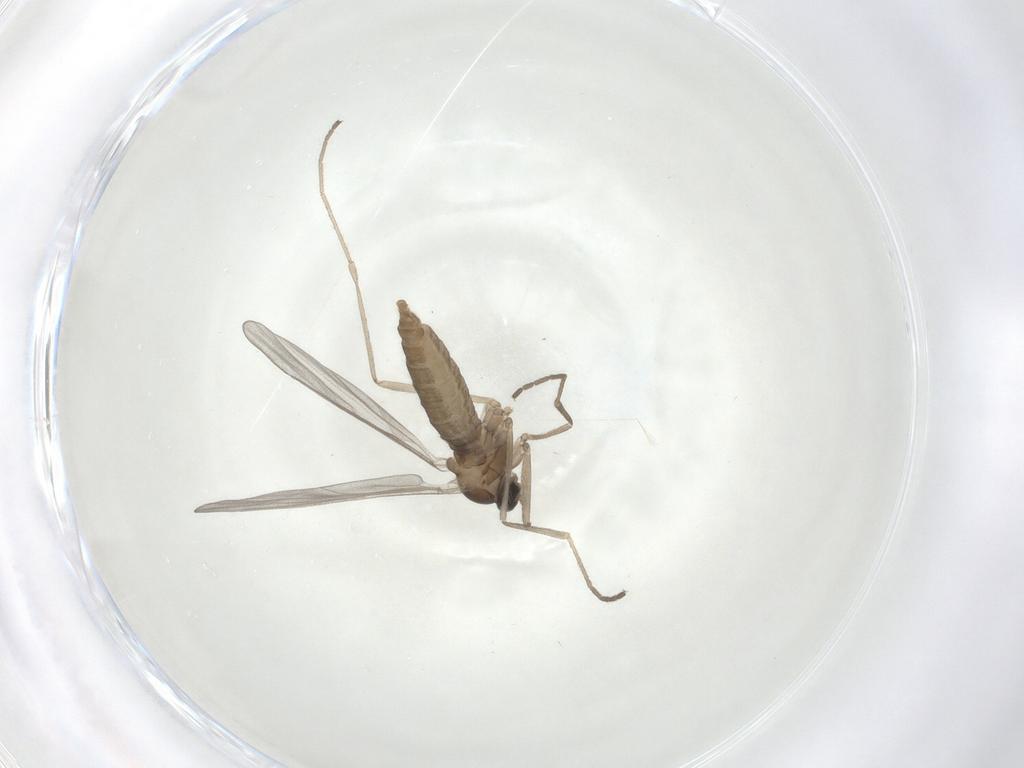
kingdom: Animalia
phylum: Arthropoda
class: Insecta
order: Diptera
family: Cecidomyiidae
